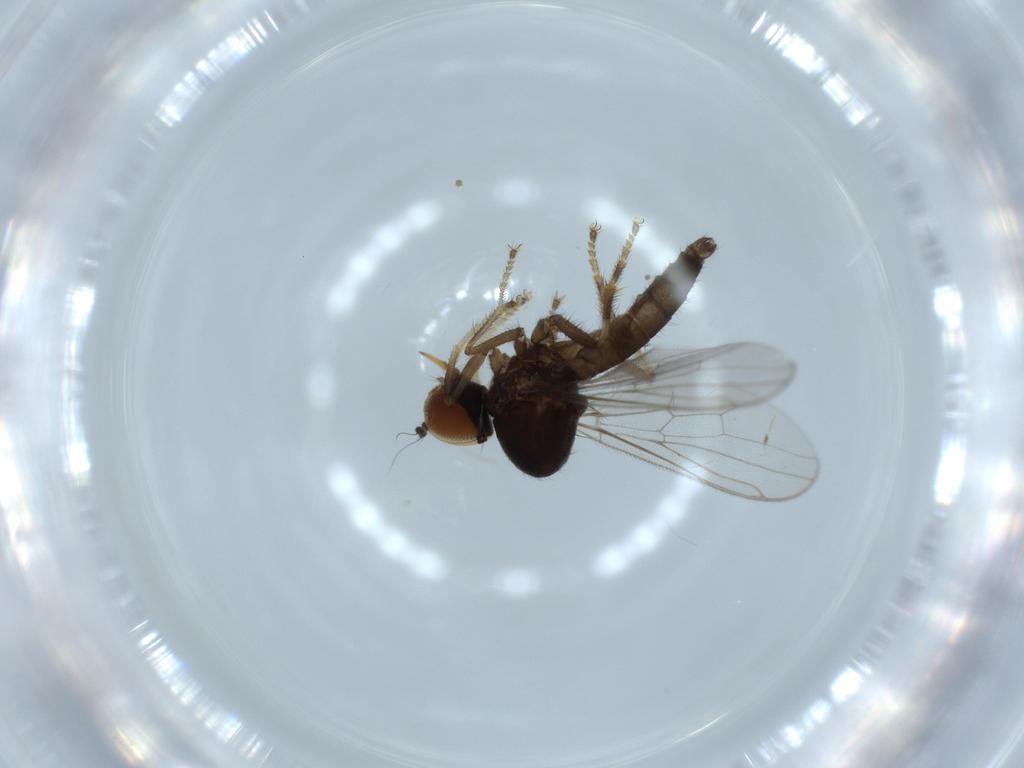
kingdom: Animalia
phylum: Arthropoda
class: Insecta
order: Diptera
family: Hybotidae
